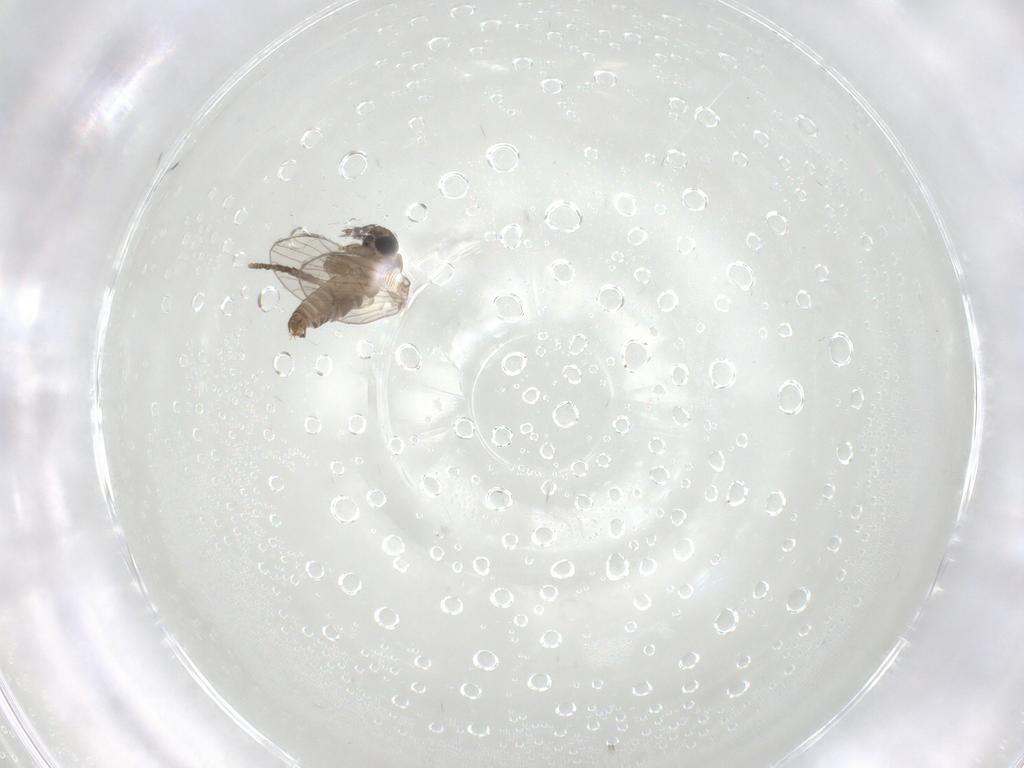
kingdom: Animalia
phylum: Arthropoda
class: Insecta
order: Diptera
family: Psychodidae
